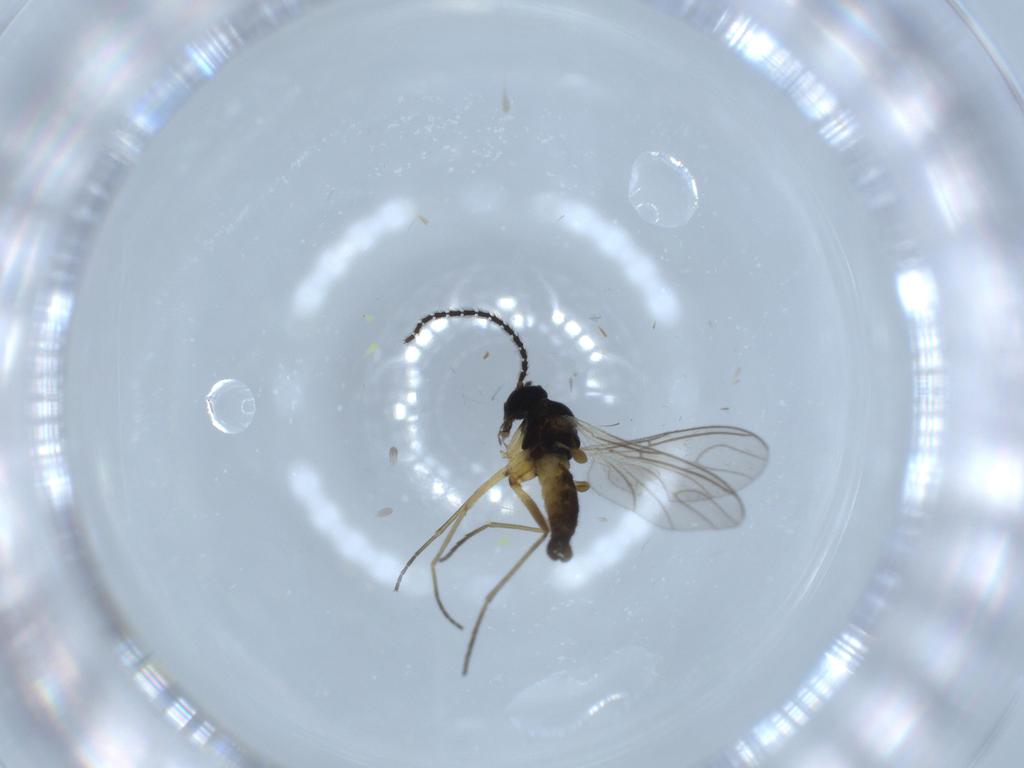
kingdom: Animalia
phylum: Arthropoda
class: Insecta
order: Diptera
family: Sciaridae
